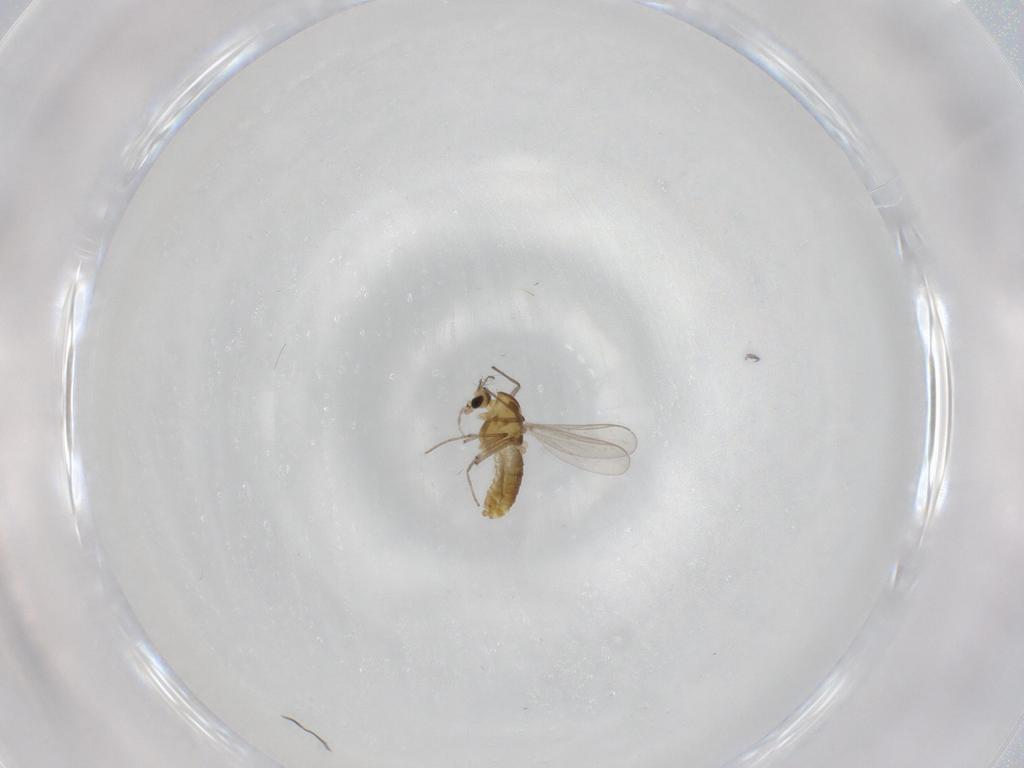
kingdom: Animalia
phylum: Arthropoda
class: Insecta
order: Diptera
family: Chironomidae
